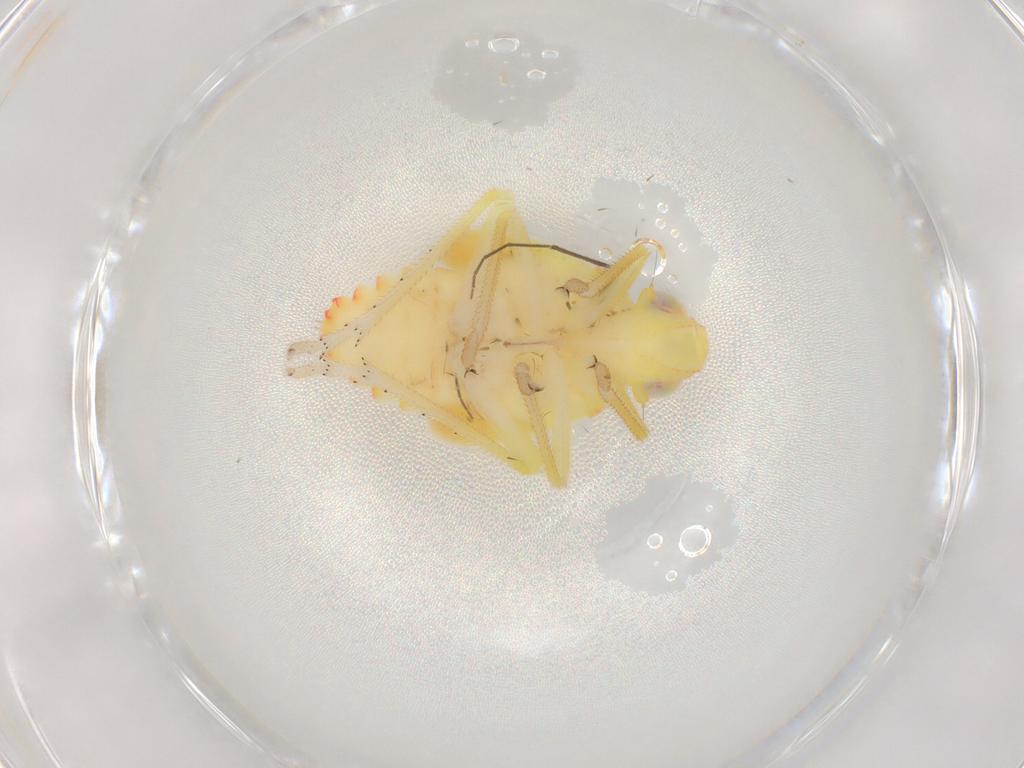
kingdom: Animalia
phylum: Arthropoda
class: Insecta
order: Hemiptera
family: Tropiduchidae
